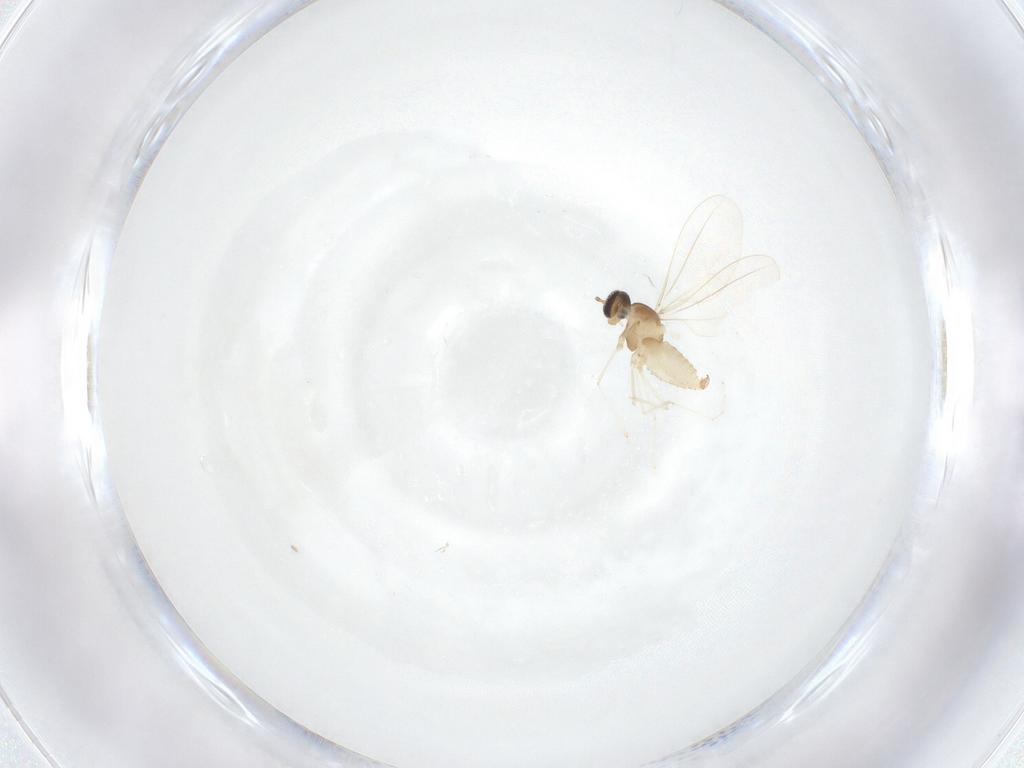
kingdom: Animalia
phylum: Arthropoda
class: Insecta
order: Diptera
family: Cecidomyiidae
